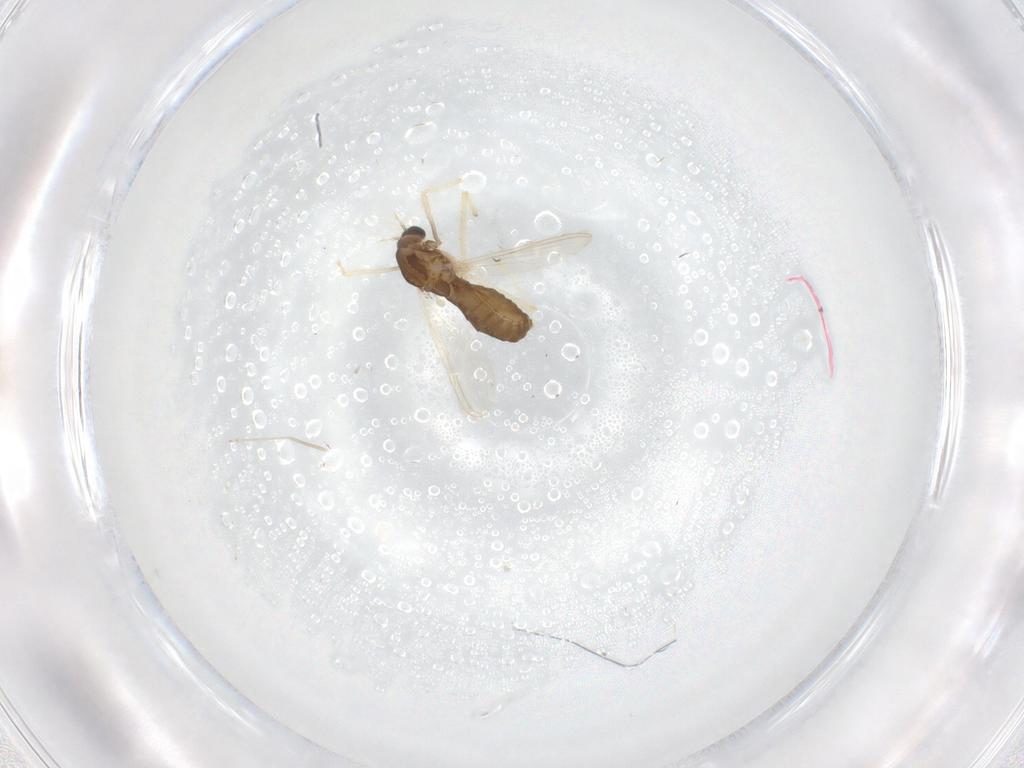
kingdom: Animalia
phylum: Arthropoda
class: Insecta
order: Diptera
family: Chironomidae
